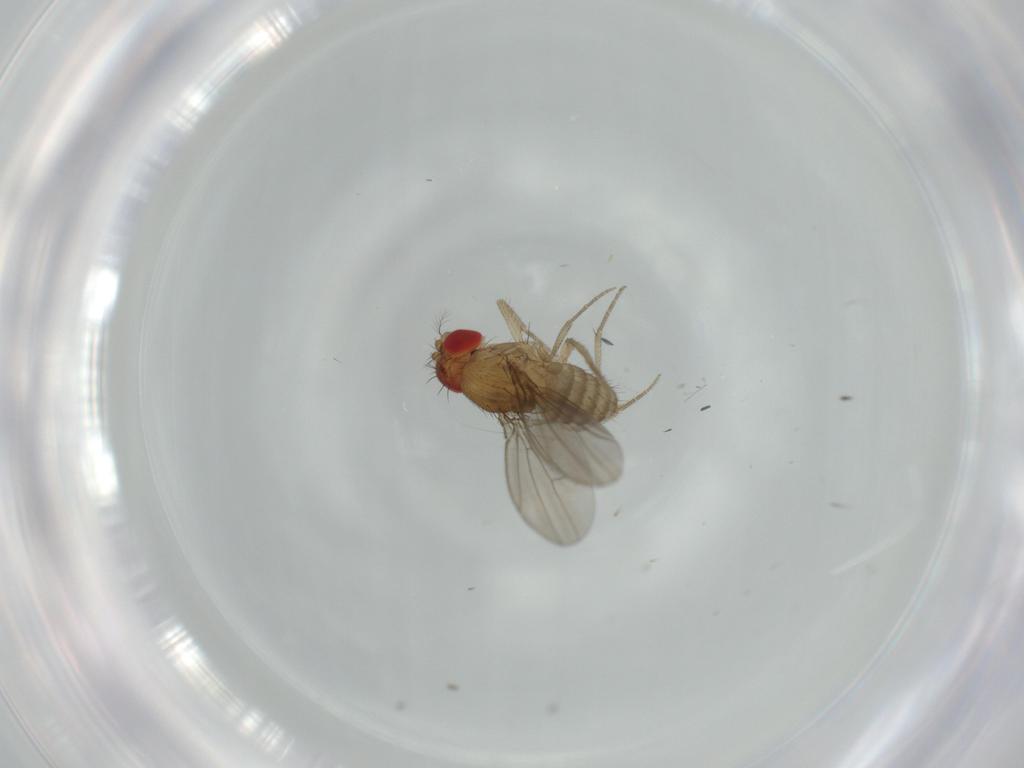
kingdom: Animalia
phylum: Arthropoda
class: Insecta
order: Diptera
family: Drosophilidae
